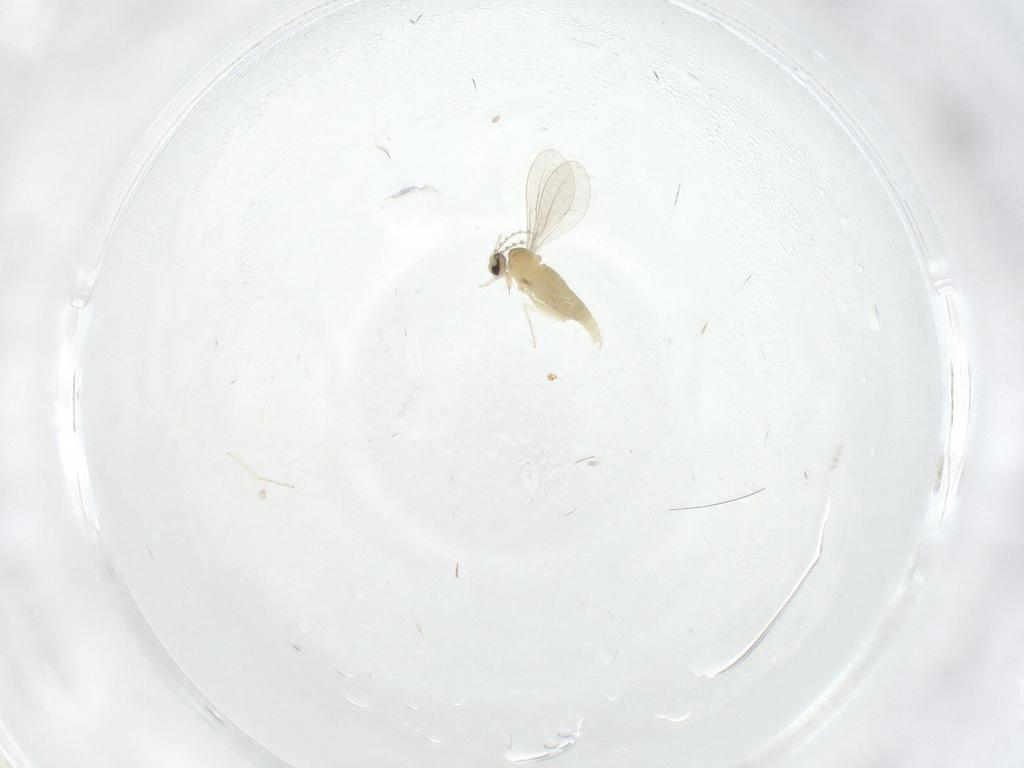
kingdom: Animalia
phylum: Arthropoda
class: Insecta
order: Diptera
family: Cecidomyiidae
